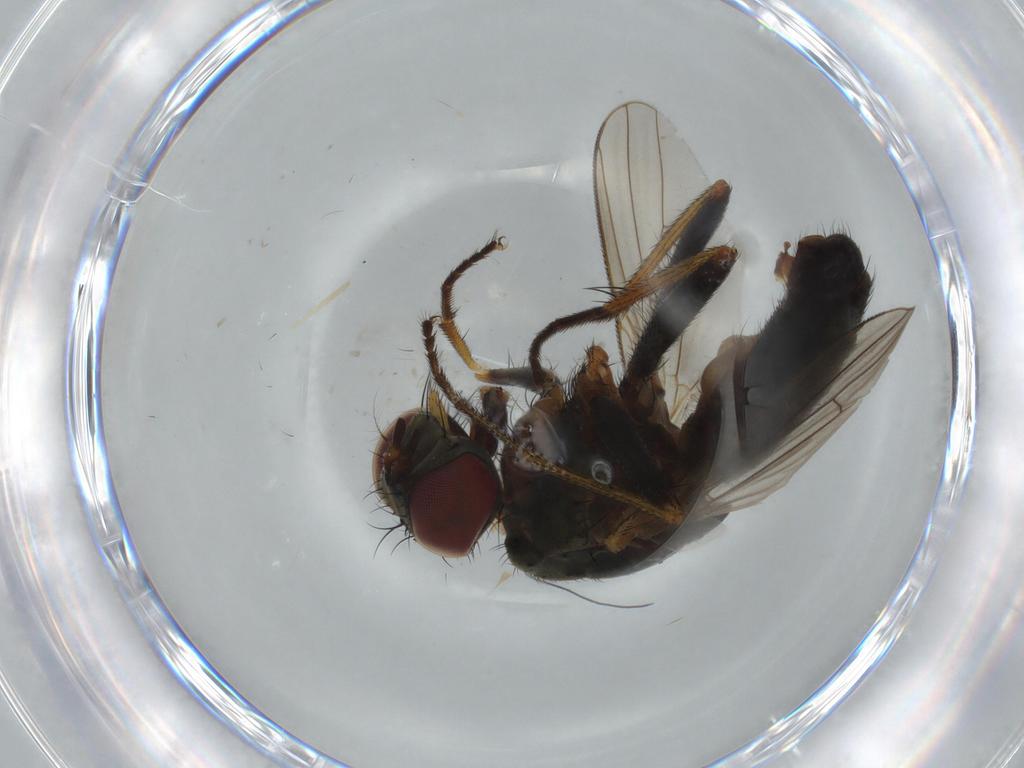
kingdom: Animalia
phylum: Arthropoda
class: Insecta
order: Diptera
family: Muscidae
